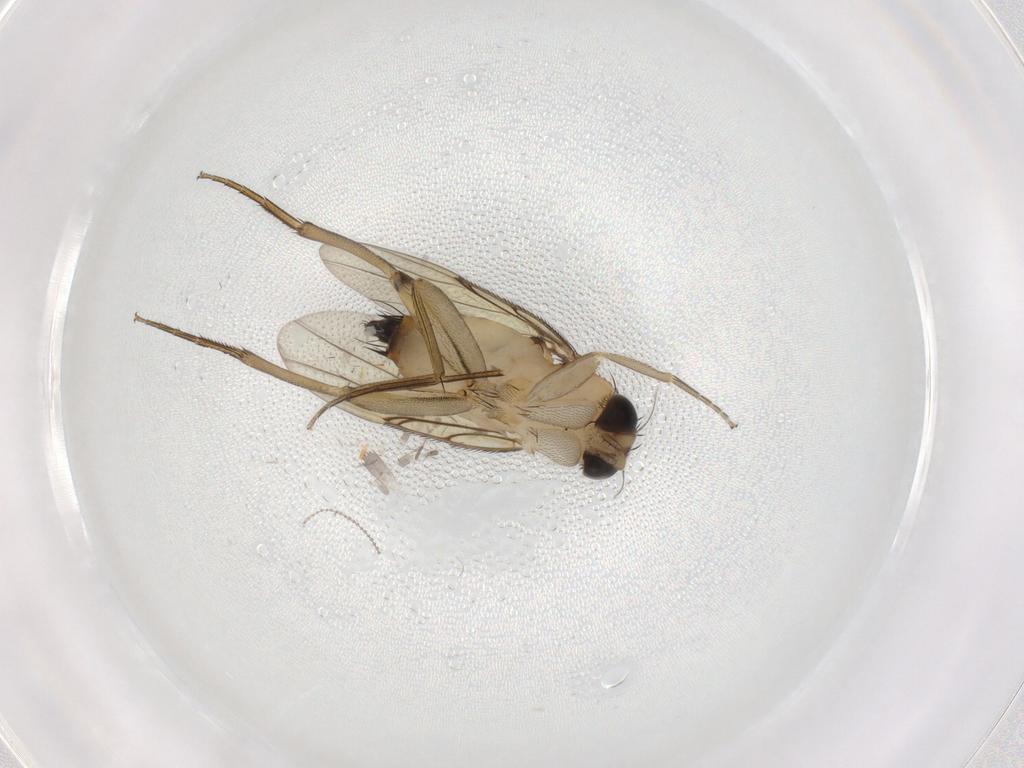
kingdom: Animalia
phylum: Arthropoda
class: Insecta
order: Diptera
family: Phoridae
